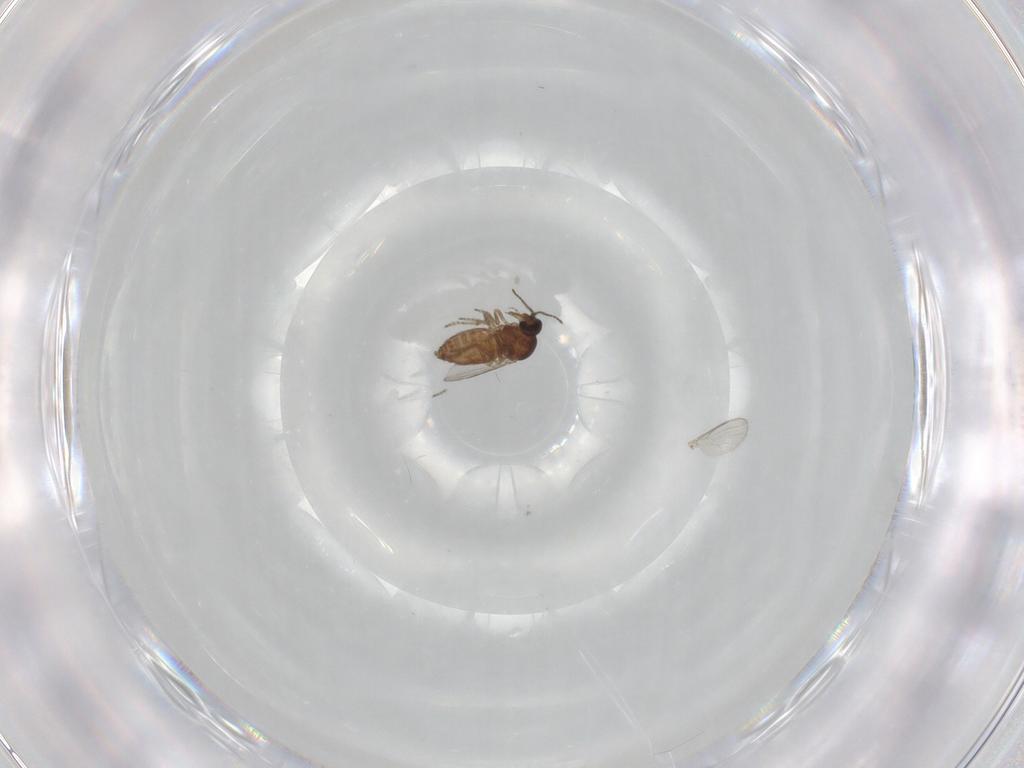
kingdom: Animalia
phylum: Arthropoda
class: Insecta
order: Diptera
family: Ceratopogonidae
